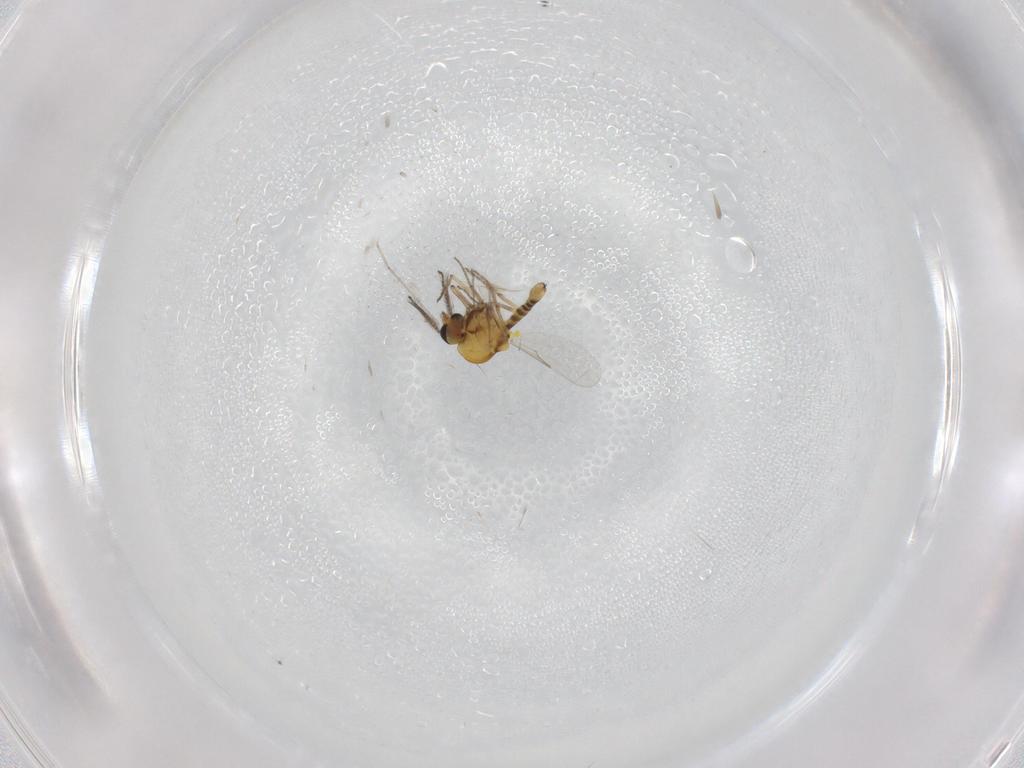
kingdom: Animalia
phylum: Arthropoda
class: Insecta
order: Diptera
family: Ceratopogonidae
